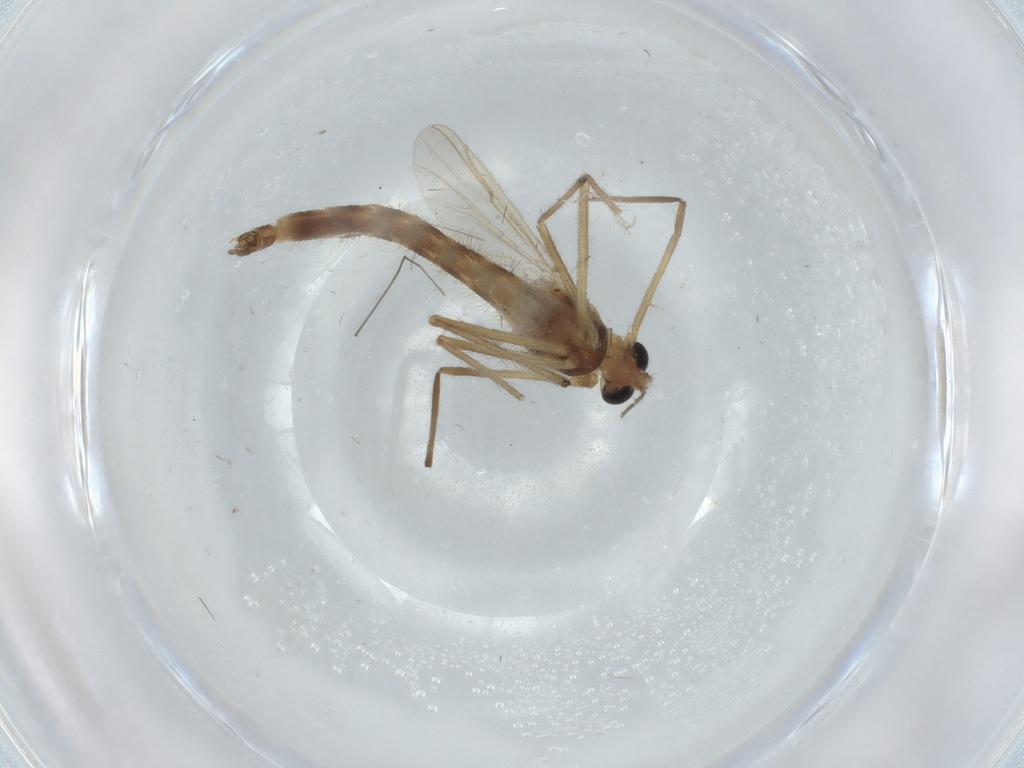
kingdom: Animalia
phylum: Arthropoda
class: Insecta
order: Diptera
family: Chironomidae
